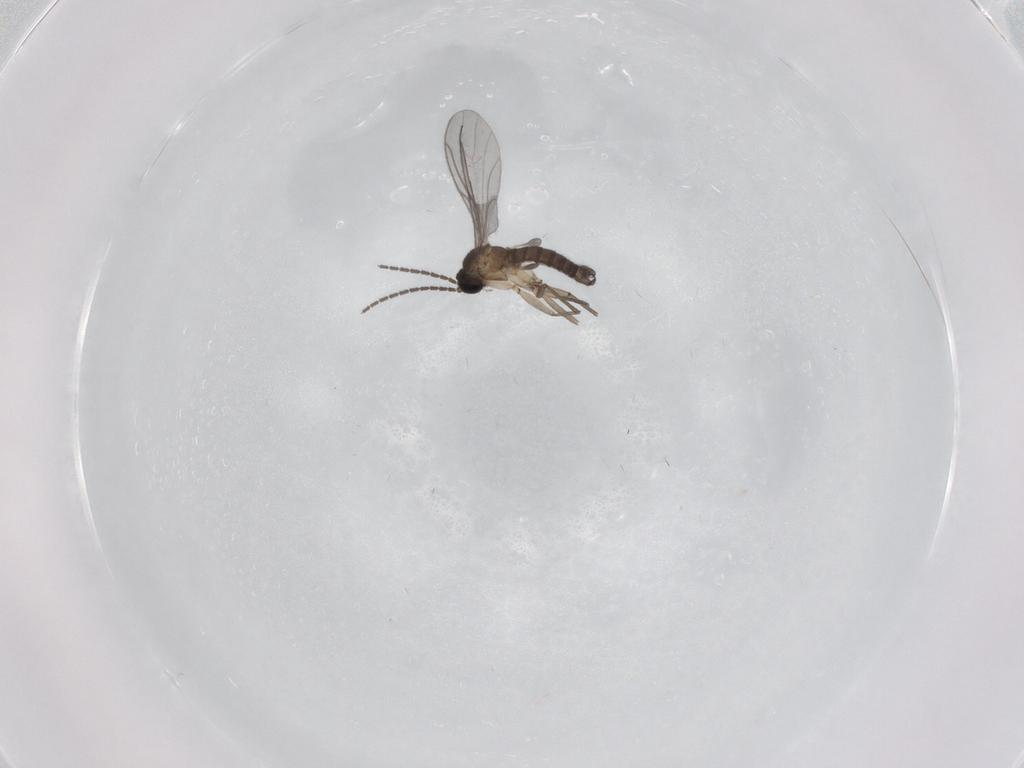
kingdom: Animalia
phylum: Arthropoda
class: Insecta
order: Diptera
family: Sciaridae
